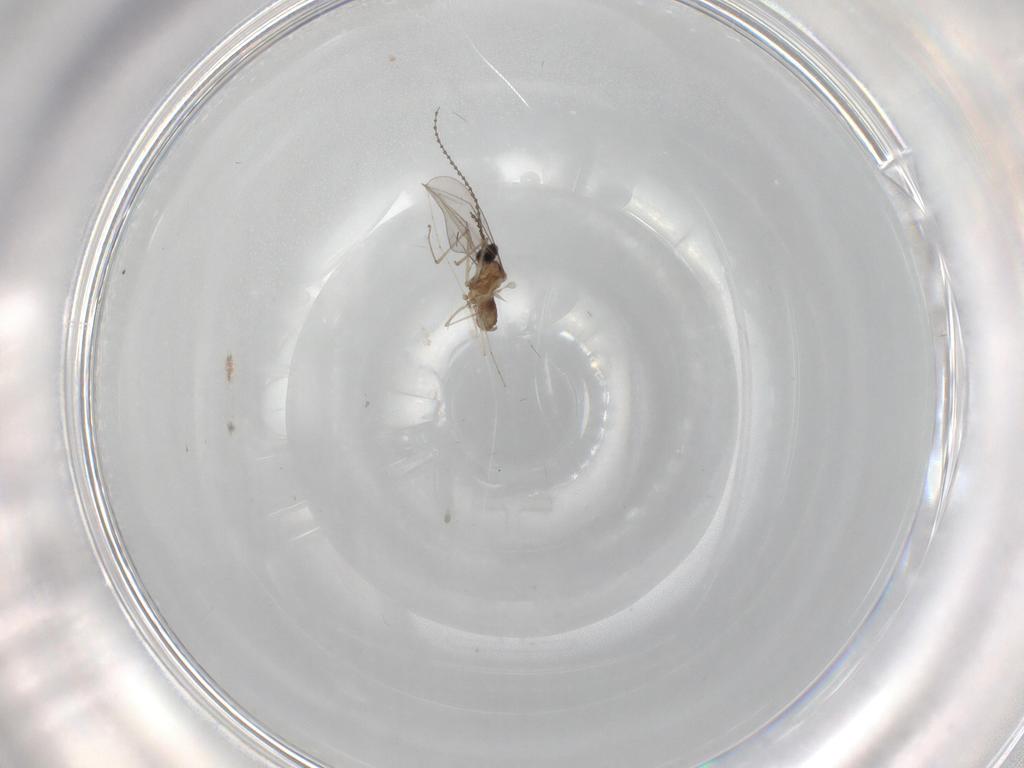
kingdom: Animalia
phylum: Arthropoda
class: Insecta
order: Diptera
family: Cecidomyiidae
